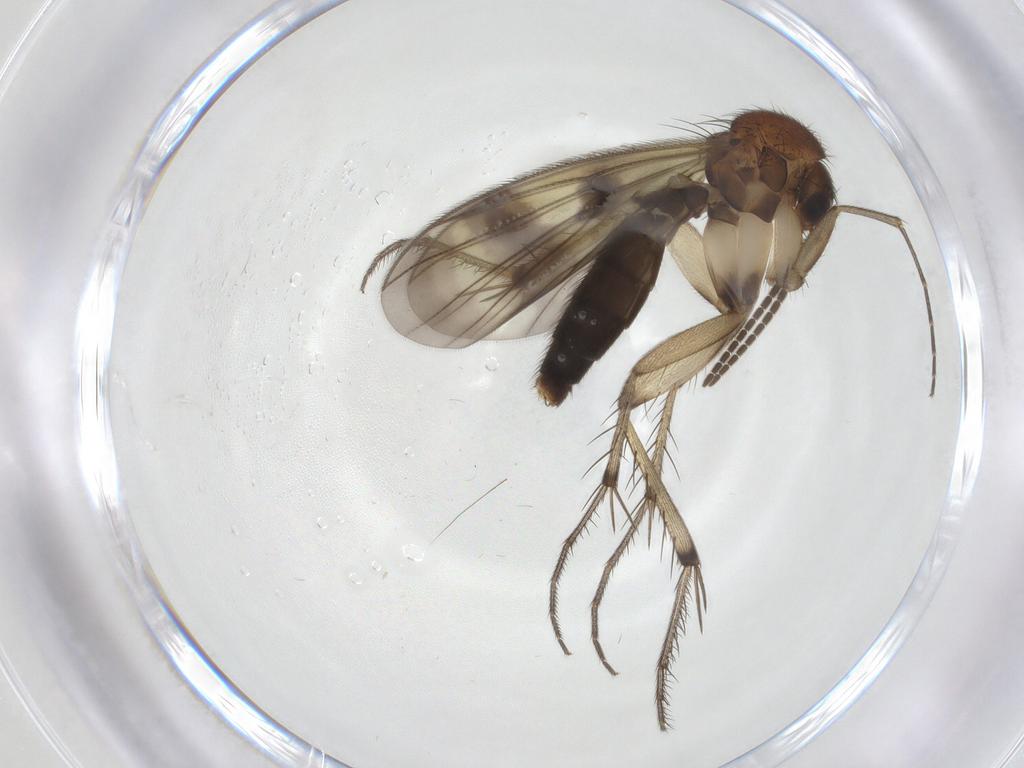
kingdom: Animalia
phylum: Arthropoda
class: Insecta
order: Diptera
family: Mycetophilidae
